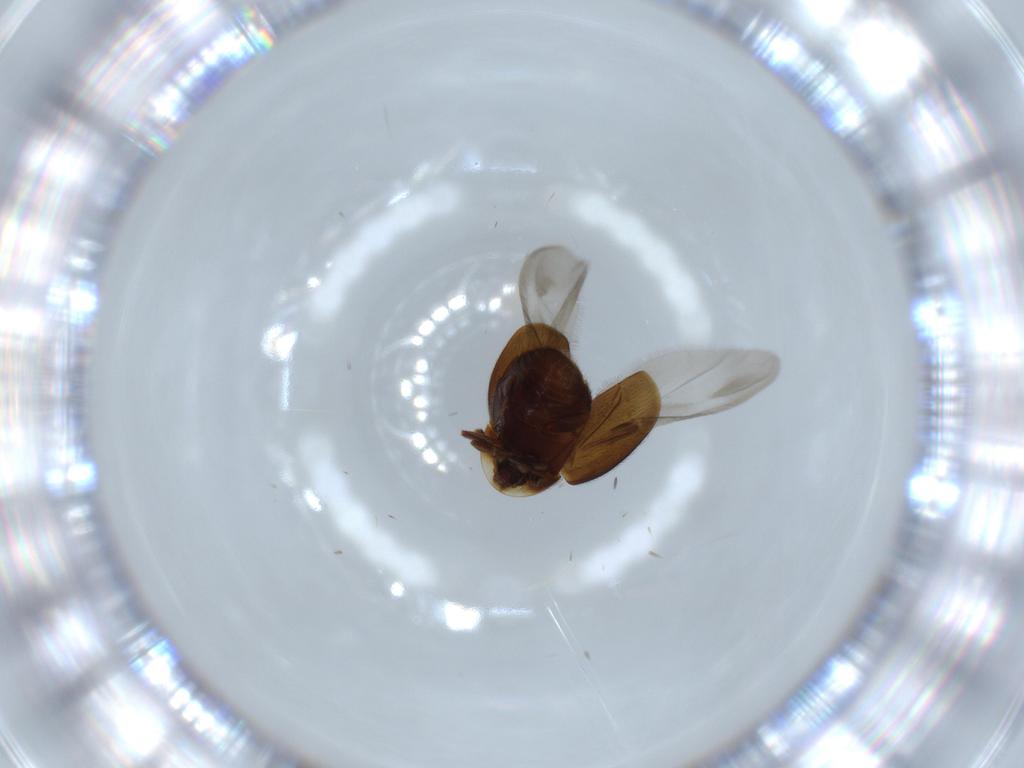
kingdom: Animalia
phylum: Arthropoda
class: Insecta
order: Coleoptera
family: Corylophidae
